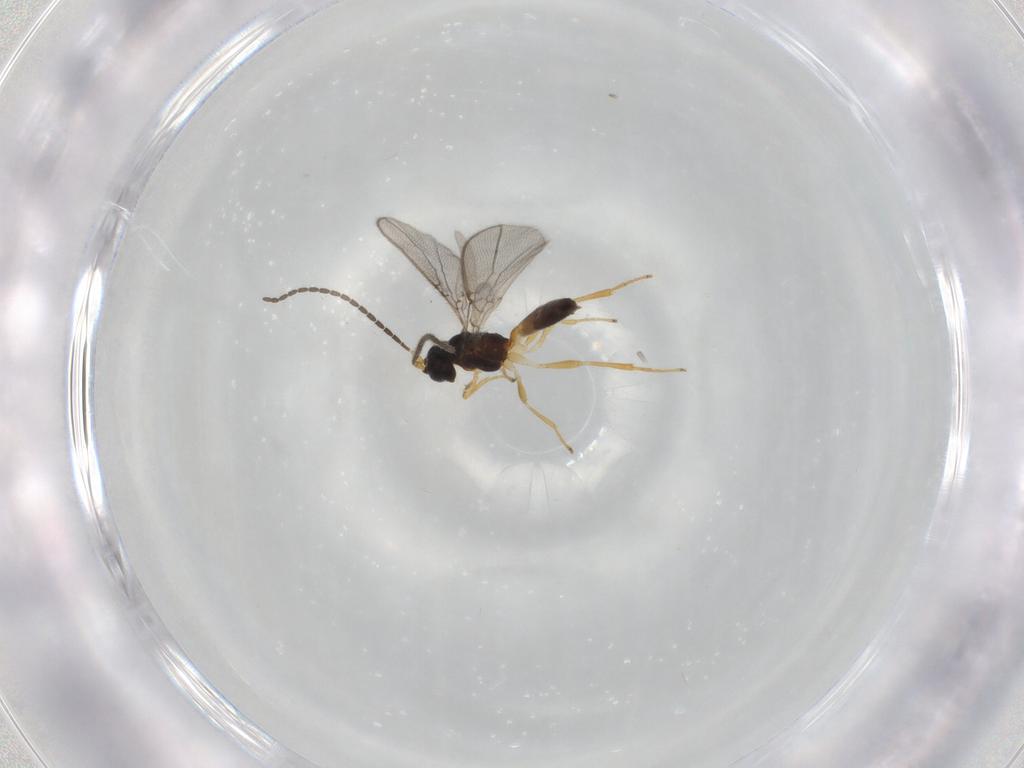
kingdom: Animalia
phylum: Arthropoda
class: Insecta
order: Hymenoptera
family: Braconidae
